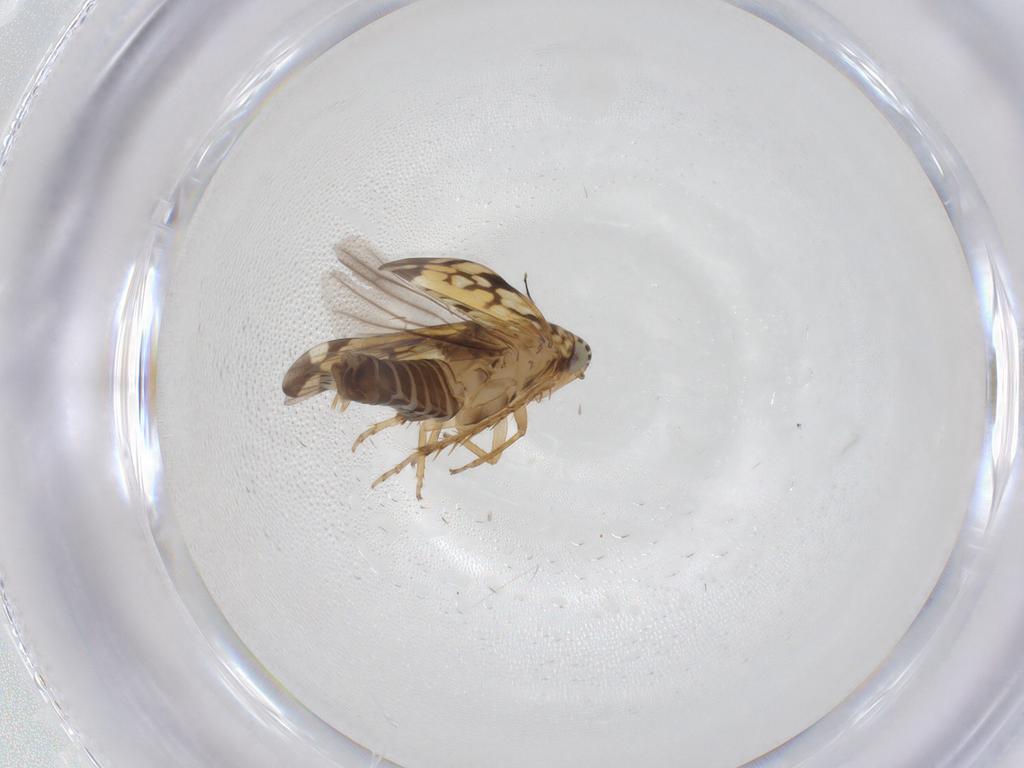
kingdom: Animalia
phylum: Arthropoda
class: Insecta
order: Hemiptera
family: Cicadellidae
